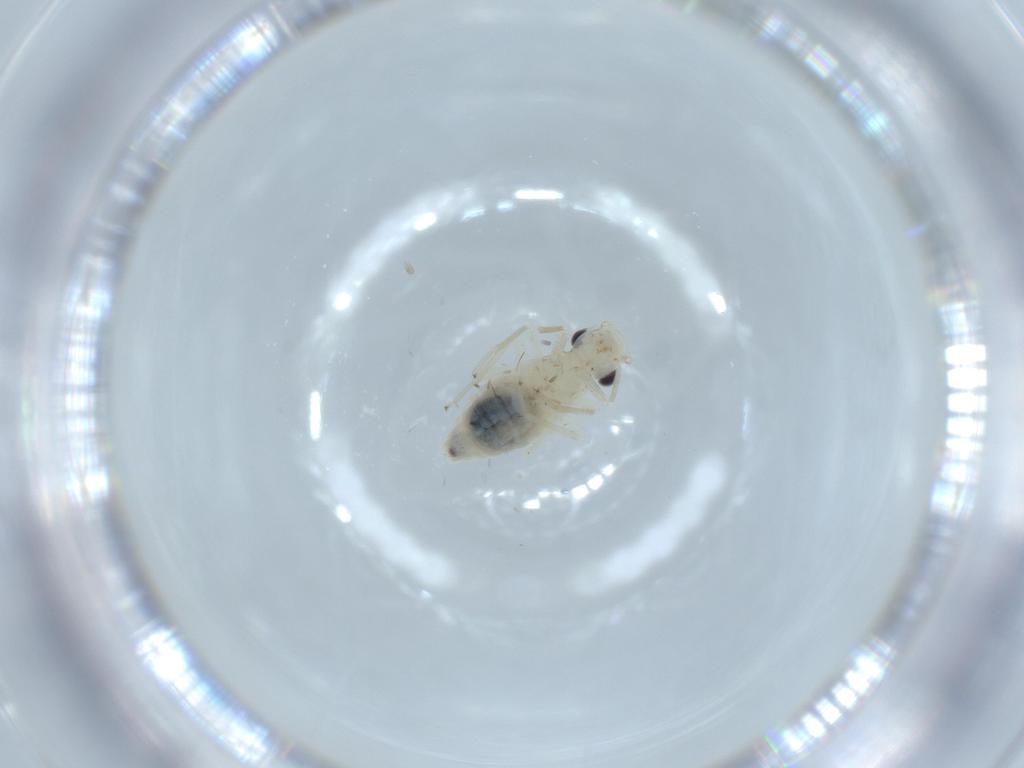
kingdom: Animalia
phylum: Arthropoda
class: Insecta
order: Psocodea
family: Caeciliusidae
